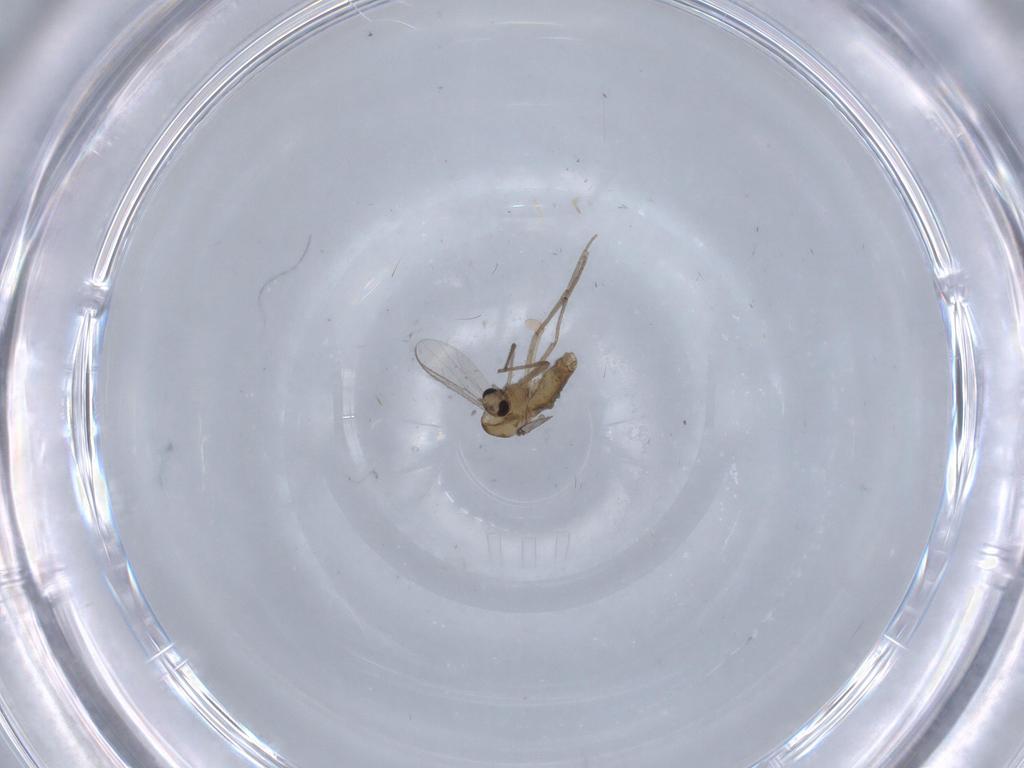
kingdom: Animalia
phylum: Arthropoda
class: Insecta
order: Diptera
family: Chironomidae
